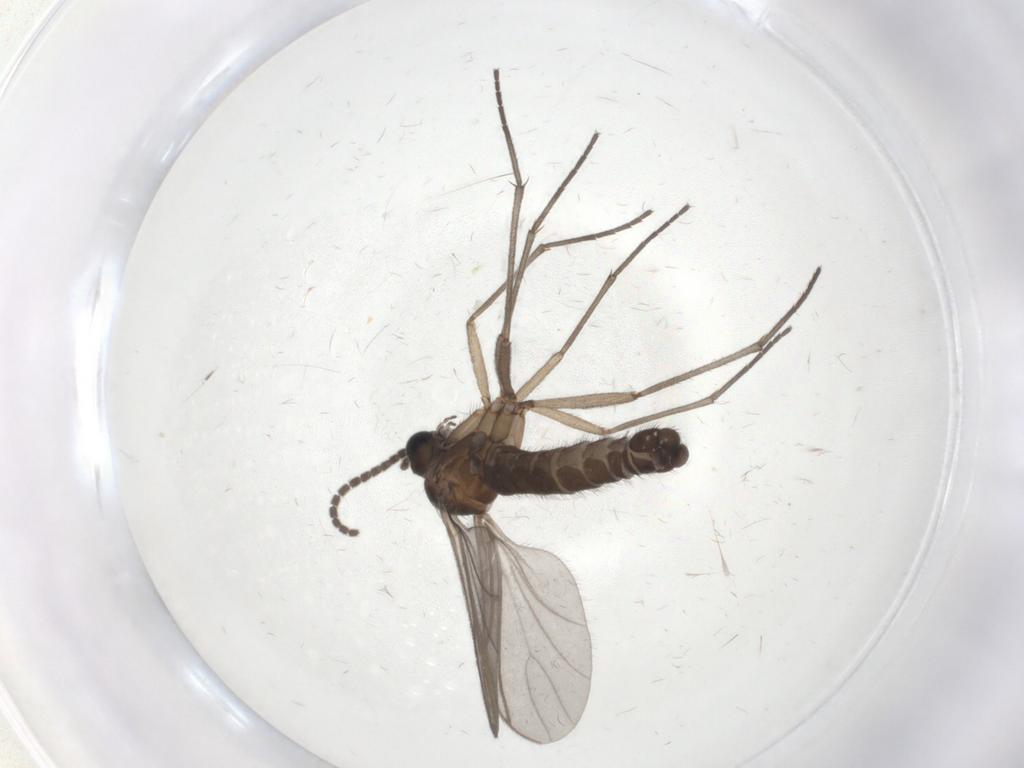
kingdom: Animalia
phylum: Arthropoda
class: Insecta
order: Diptera
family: Sciaridae
